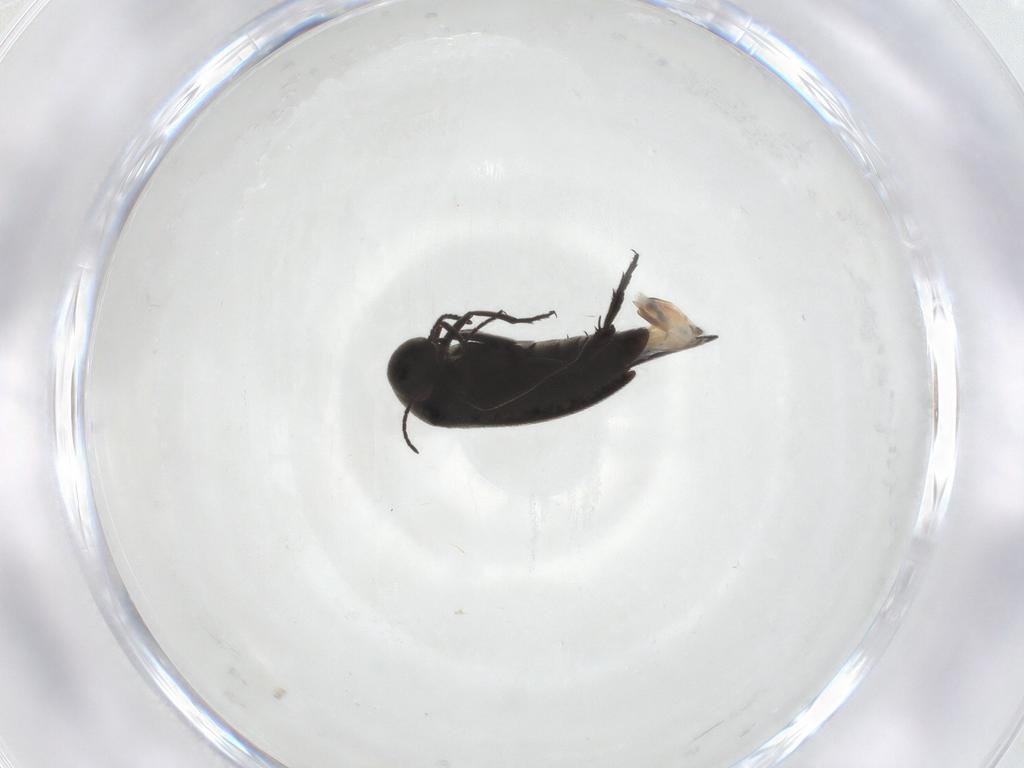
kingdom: Animalia
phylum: Arthropoda
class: Insecta
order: Coleoptera
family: Mordellidae
